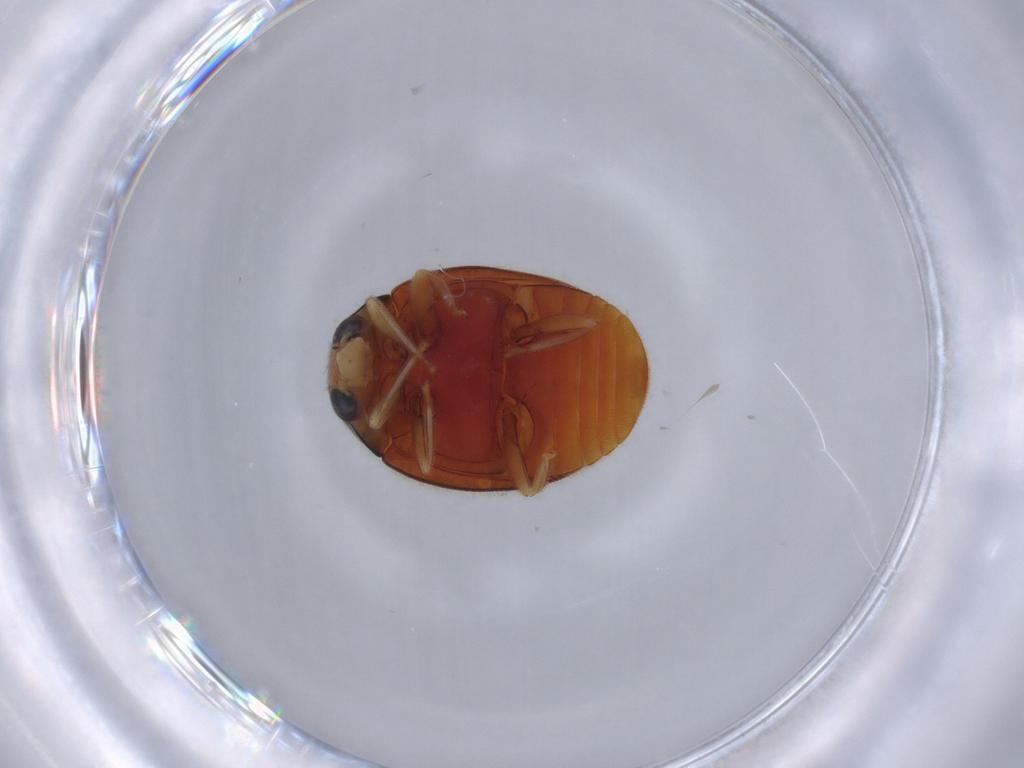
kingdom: Animalia
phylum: Arthropoda
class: Insecta
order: Coleoptera
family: Coccinellidae
